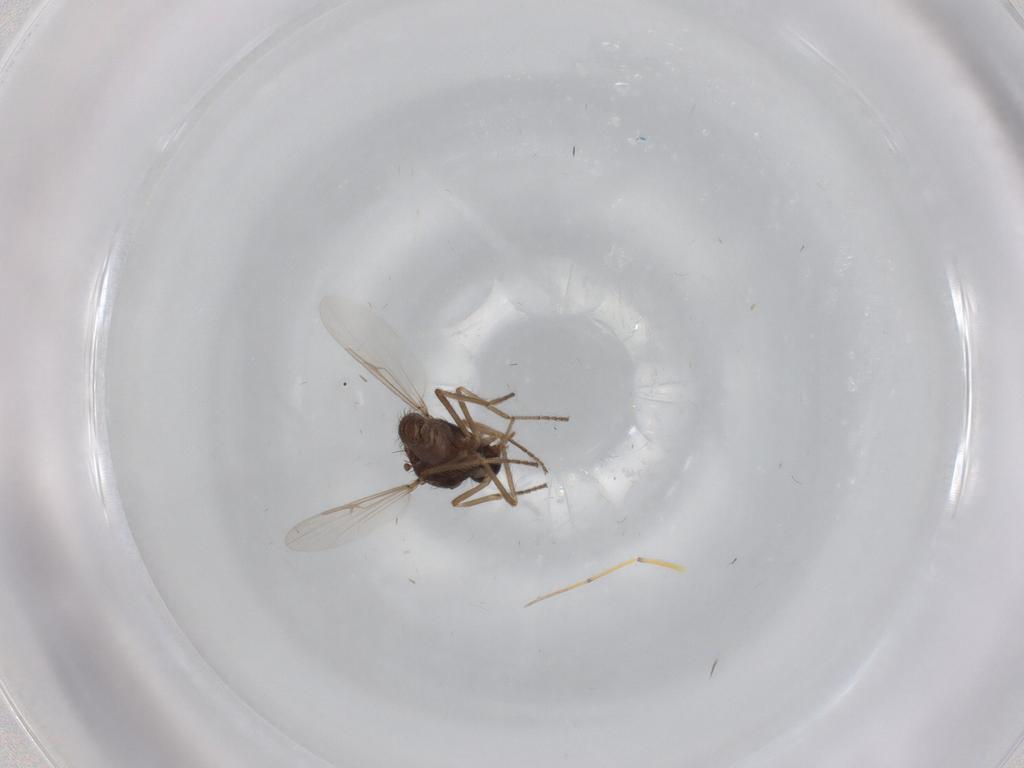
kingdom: Animalia
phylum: Arthropoda
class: Insecta
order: Diptera
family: Ceratopogonidae
